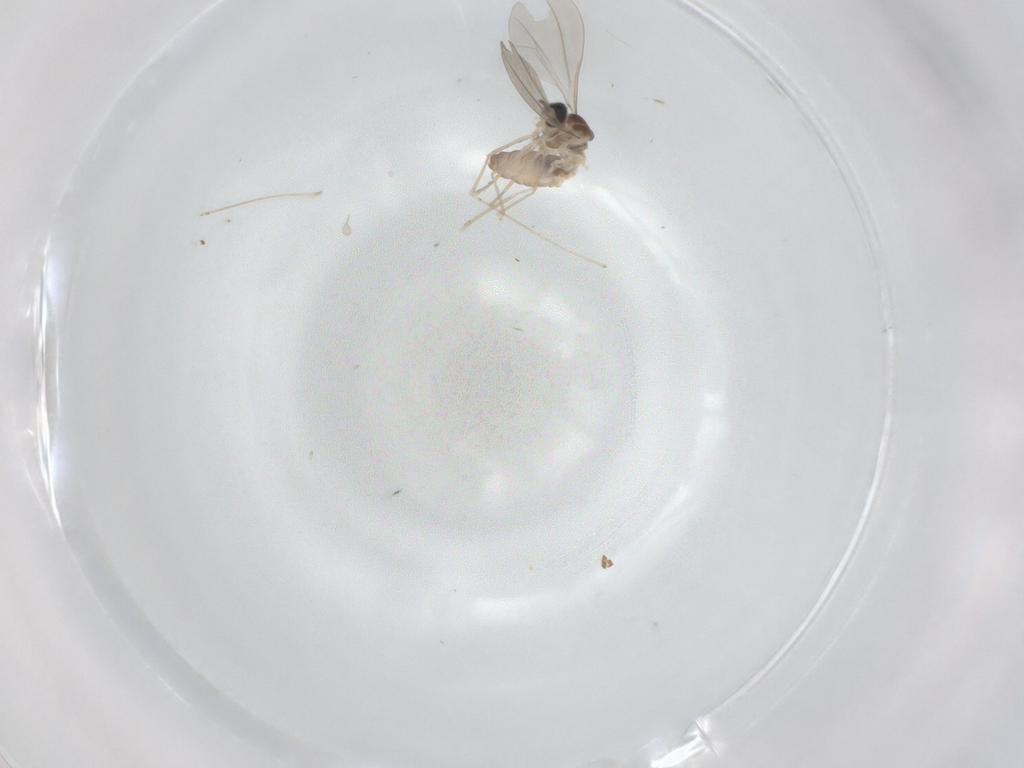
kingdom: Animalia
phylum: Arthropoda
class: Insecta
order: Diptera
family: Cecidomyiidae
